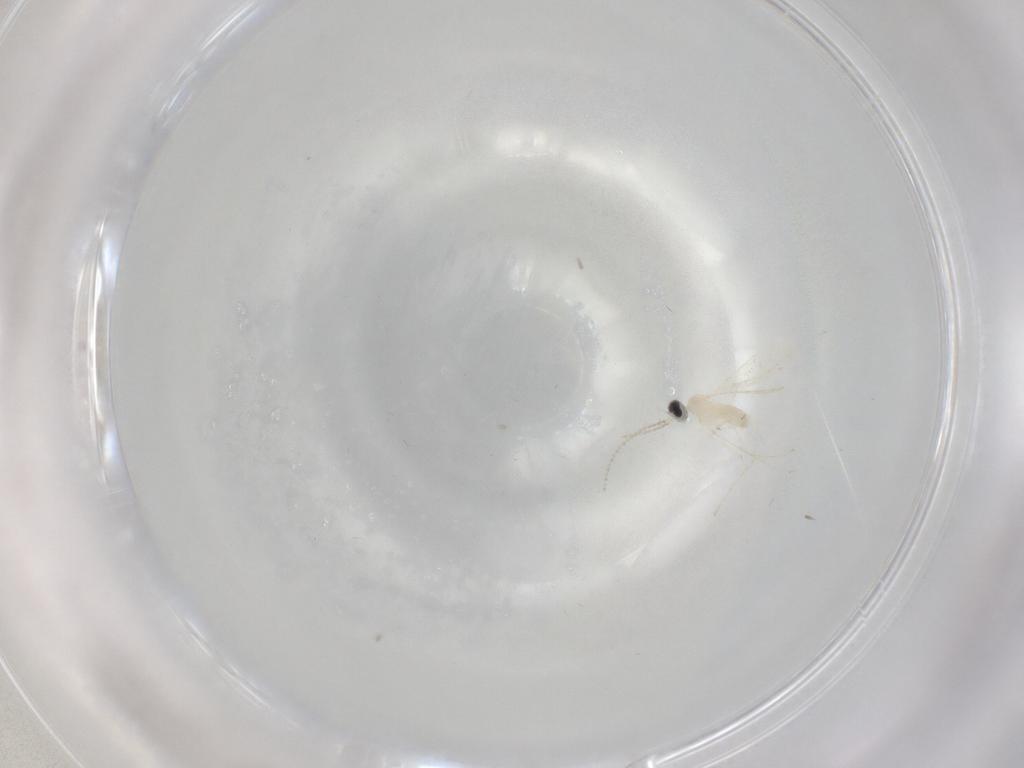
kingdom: Animalia
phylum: Arthropoda
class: Insecta
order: Diptera
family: Cecidomyiidae
